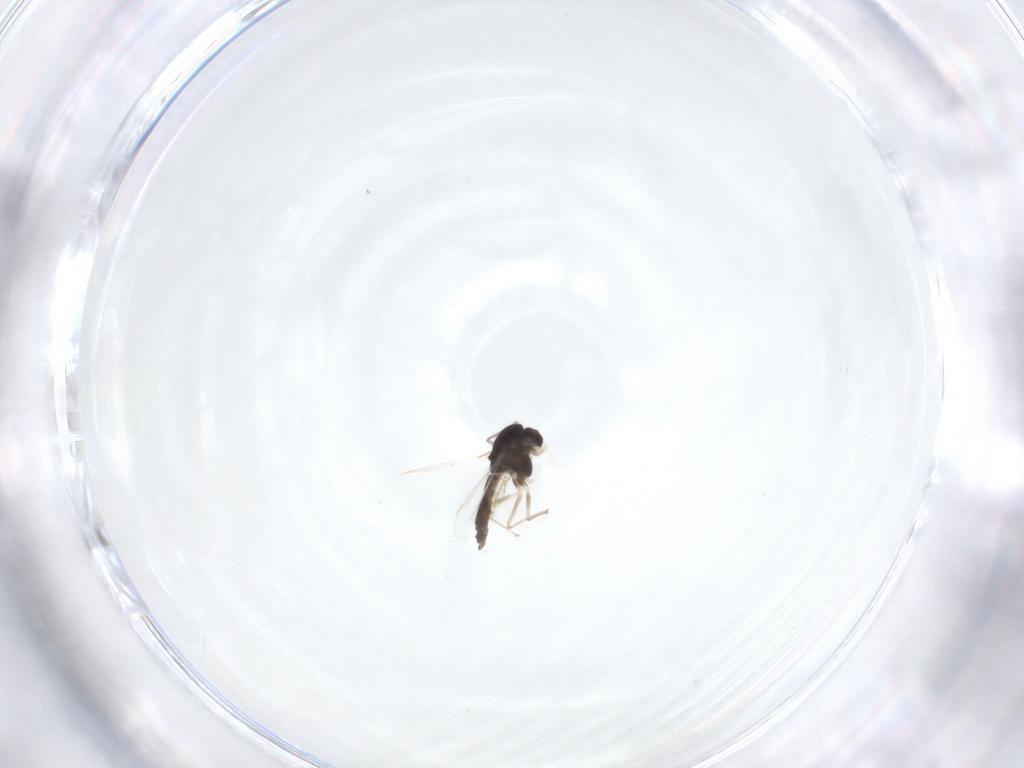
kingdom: Animalia
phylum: Arthropoda
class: Insecta
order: Diptera
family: Chironomidae
